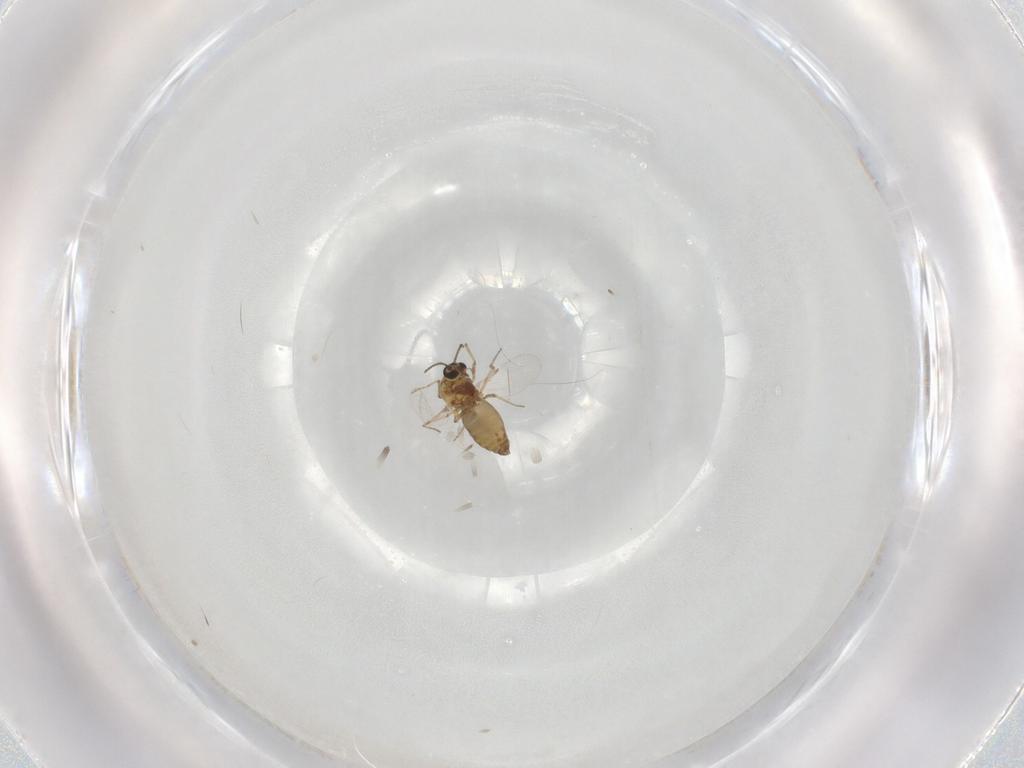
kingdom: Animalia
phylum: Arthropoda
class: Insecta
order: Diptera
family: Ceratopogonidae
